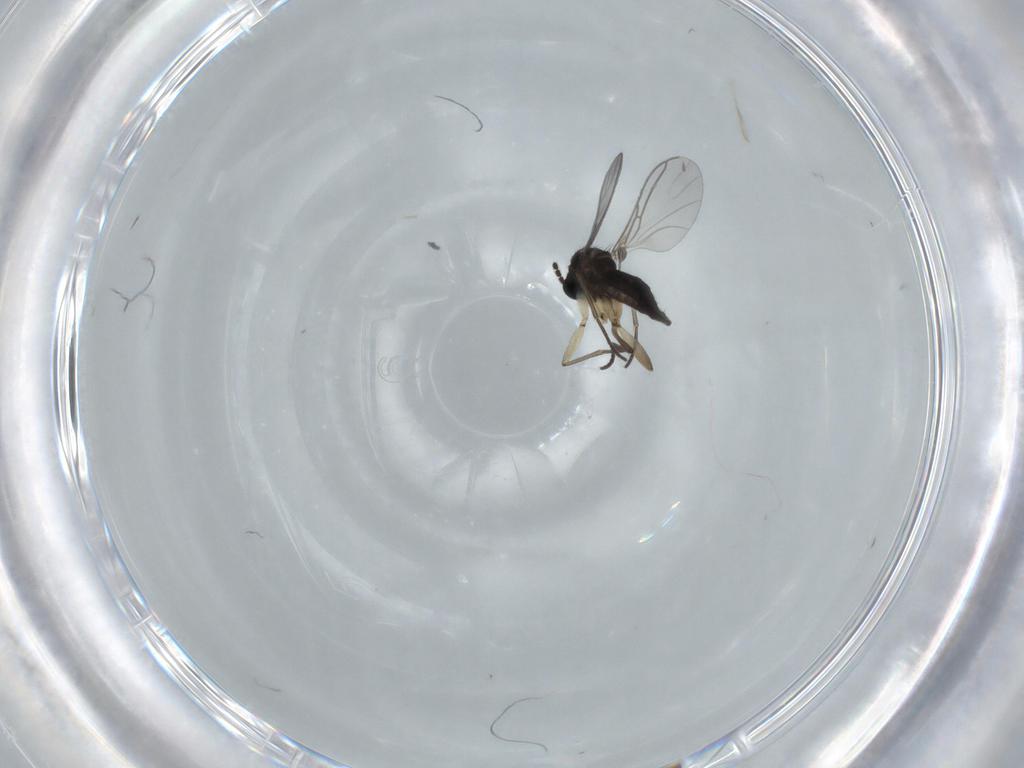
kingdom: Animalia
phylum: Arthropoda
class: Insecta
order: Diptera
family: Sciaridae
